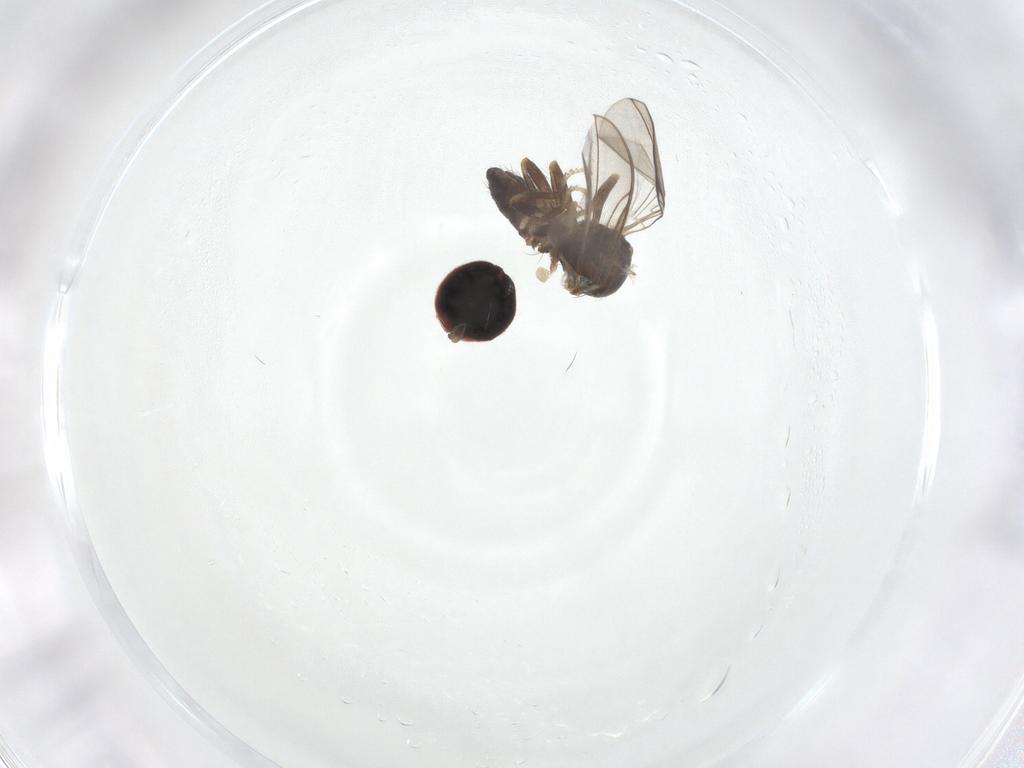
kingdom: Animalia
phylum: Arthropoda
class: Insecta
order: Diptera
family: Pipunculidae
